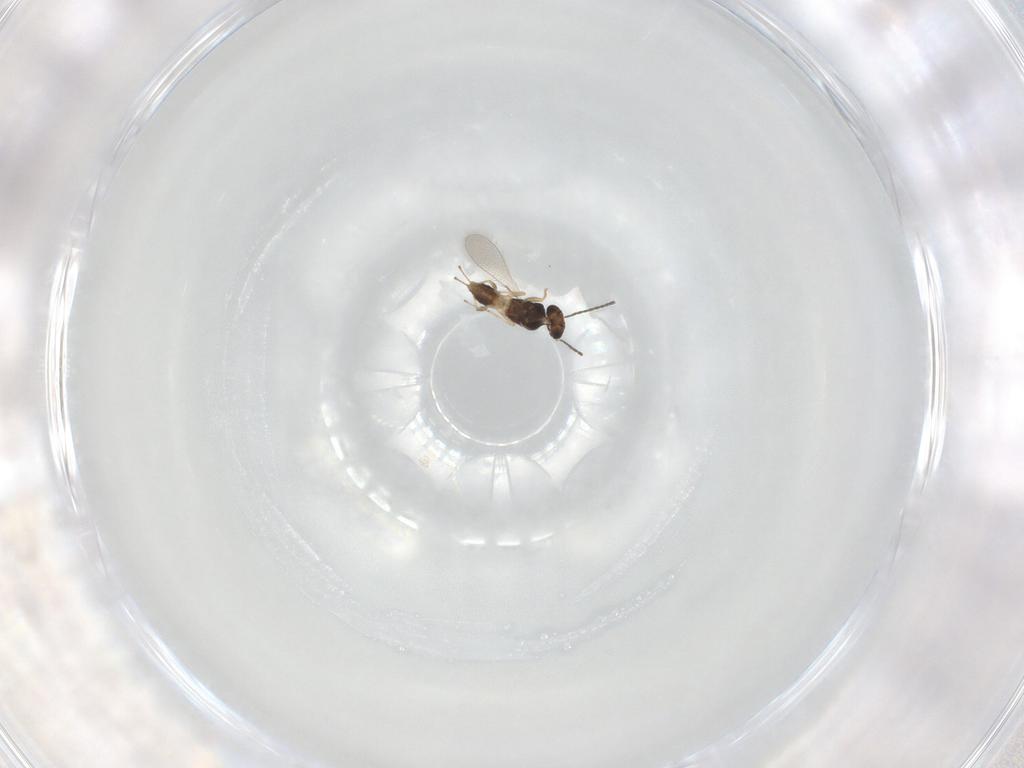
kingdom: Animalia
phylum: Arthropoda
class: Insecta
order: Hymenoptera
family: Mymaridae
